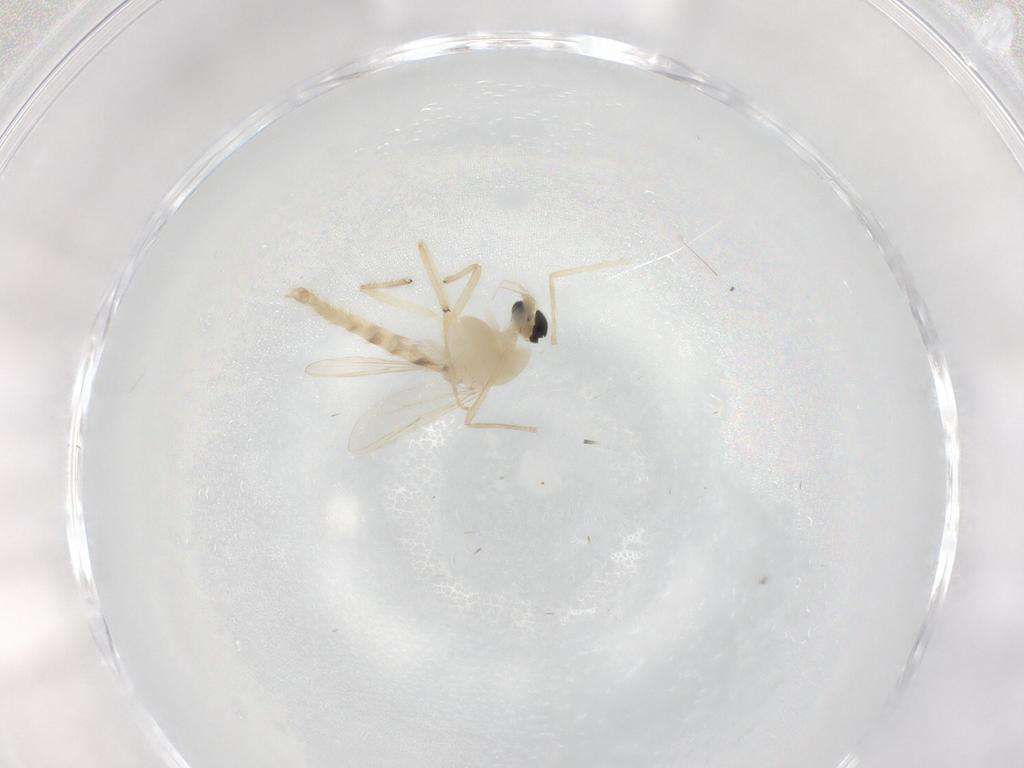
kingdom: Animalia
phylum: Arthropoda
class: Insecta
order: Diptera
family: Chironomidae
